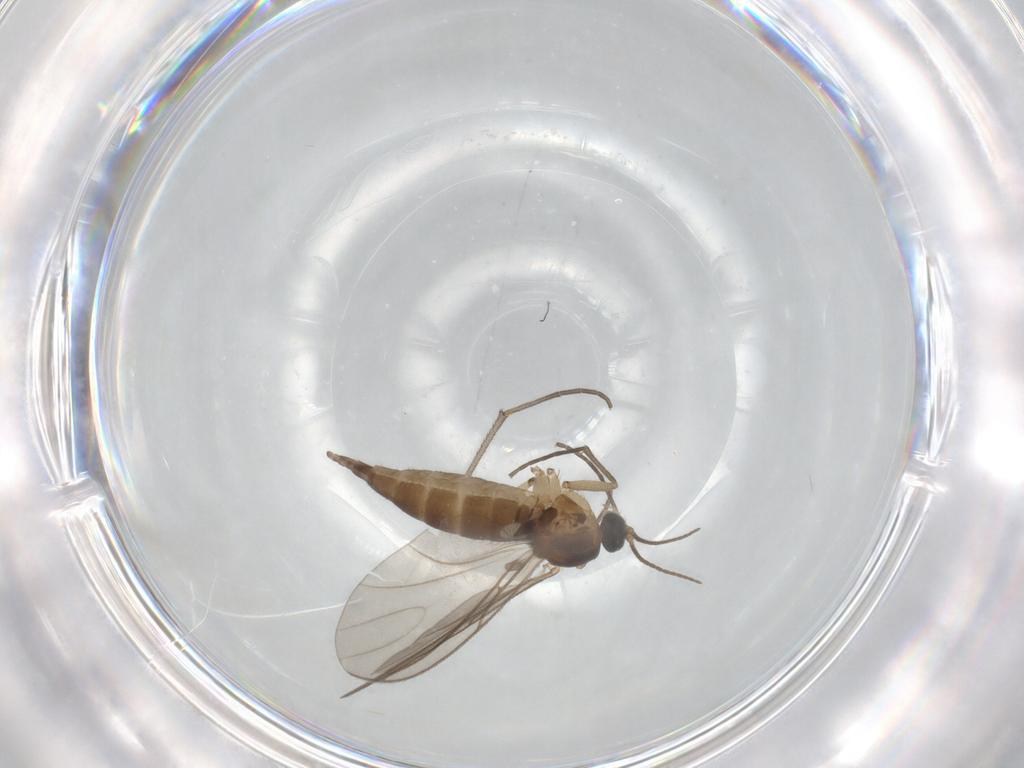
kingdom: Animalia
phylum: Arthropoda
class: Insecta
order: Diptera
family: Sciaridae
